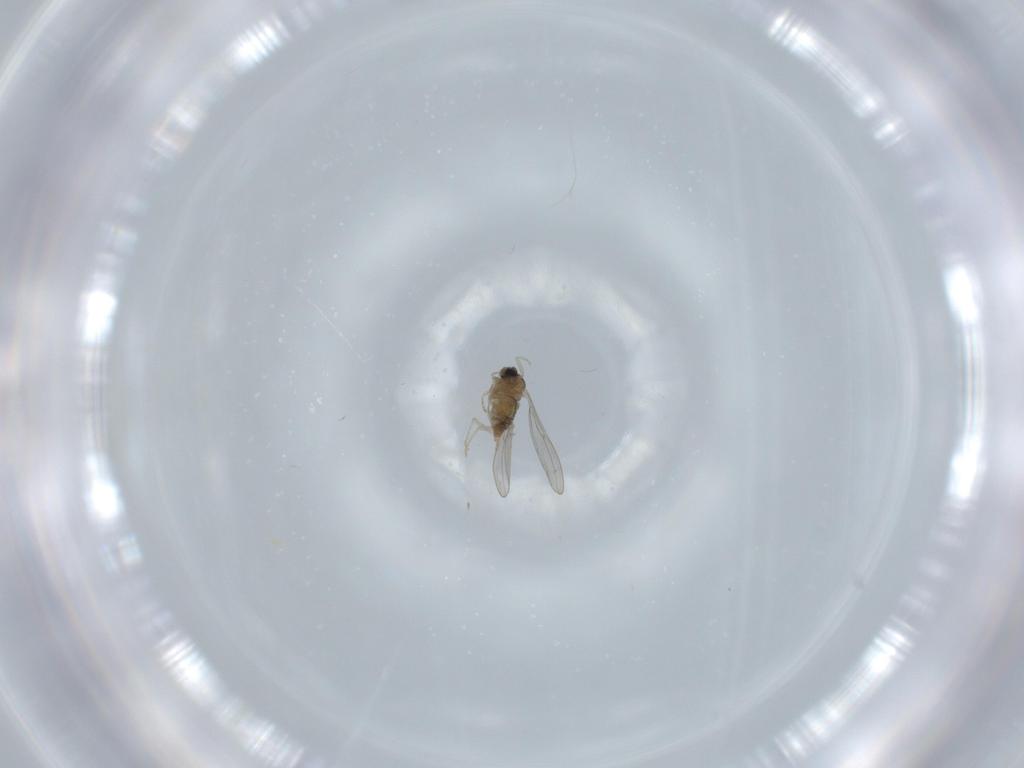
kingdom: Animalia
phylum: Arthropoda
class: Insecta
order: Diptera
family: Cecidomyiidae
